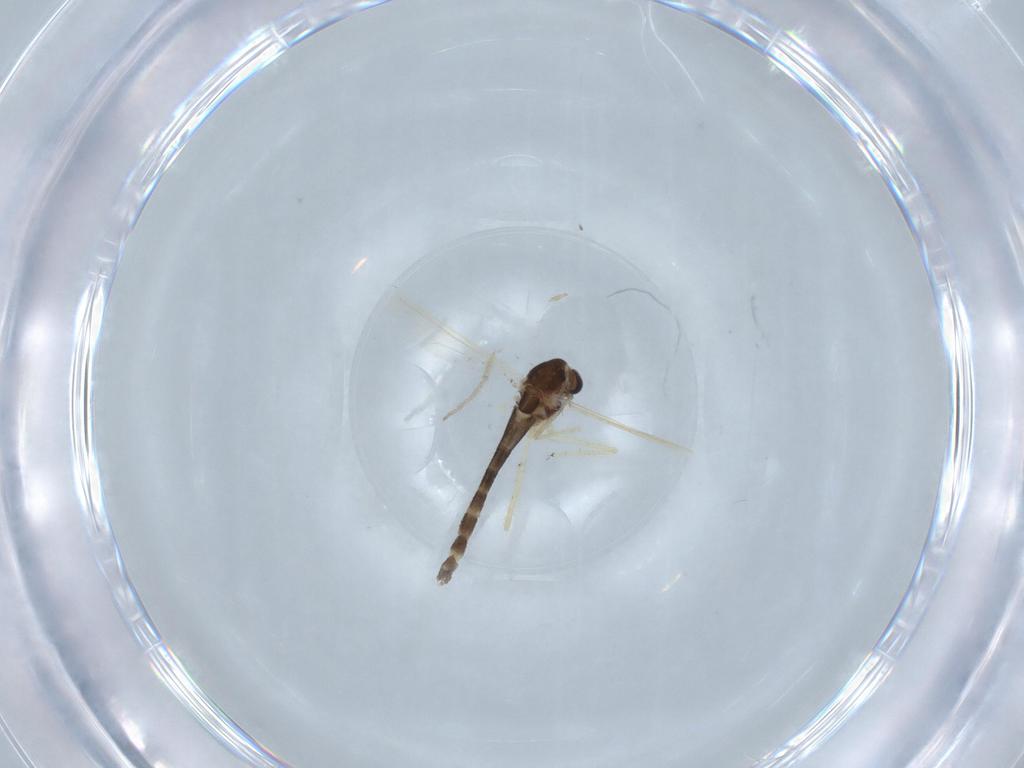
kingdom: Animalia
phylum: Arthropoda
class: Insecta
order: Diptera
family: Chironomidae
